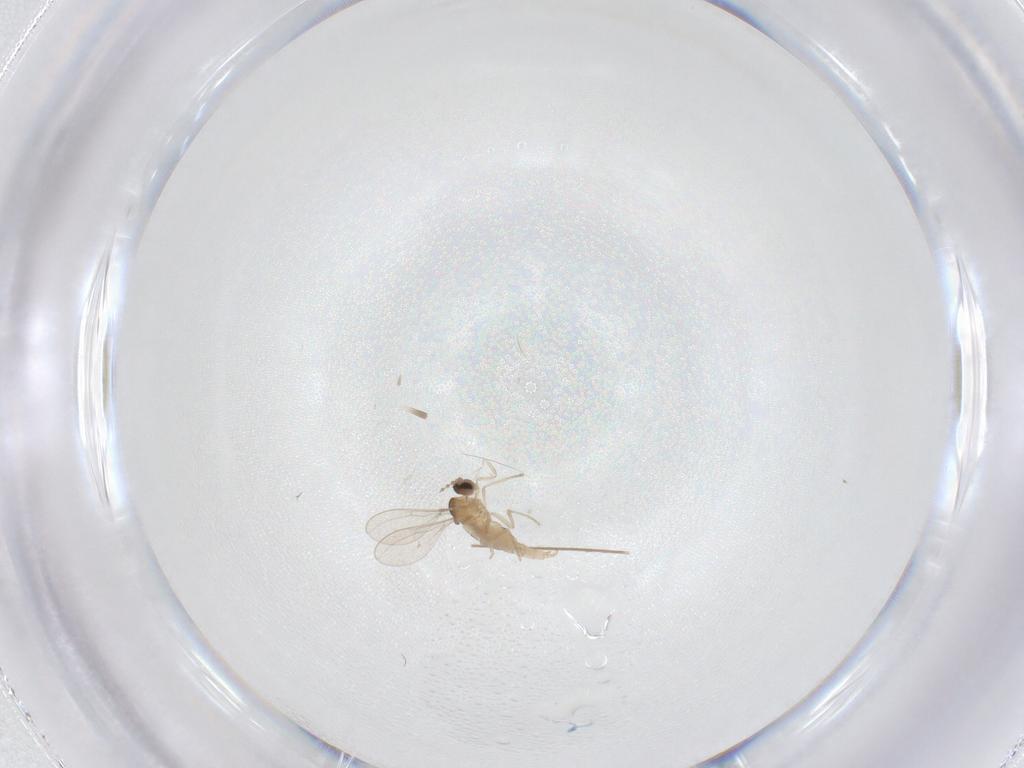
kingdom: Animalia
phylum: Arthropoda
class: Insecta
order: Diptera
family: Cecidomyiidae
